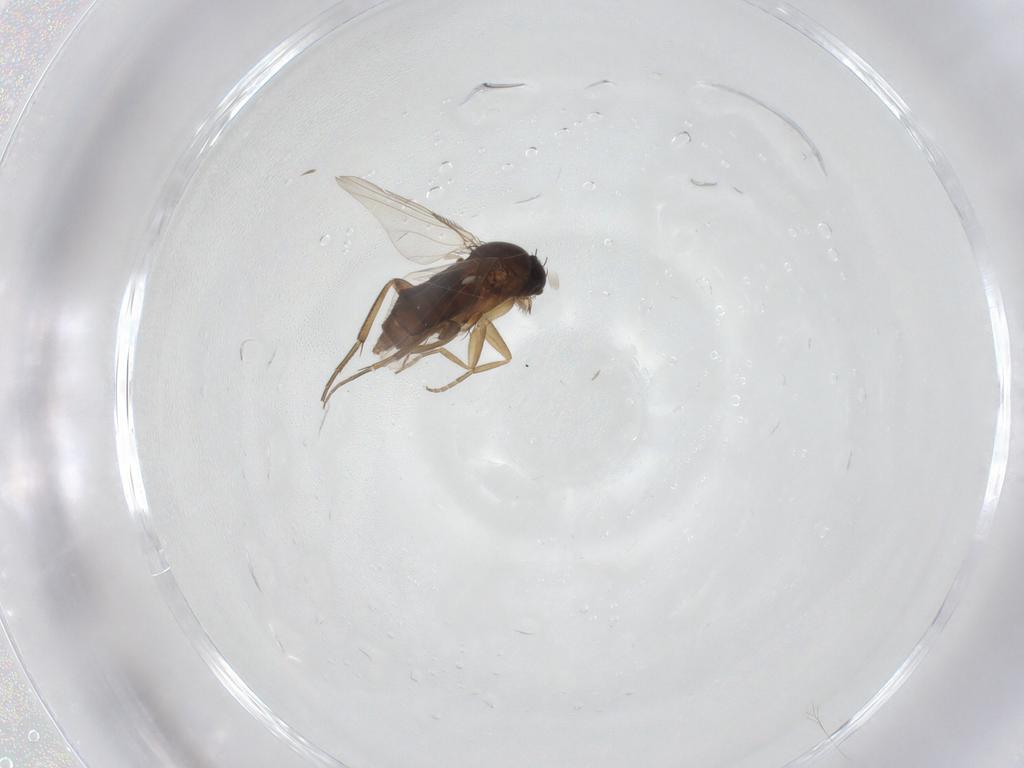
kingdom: Animalia
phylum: Arthropoda
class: Insecta
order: Diptera
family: Phoridae
